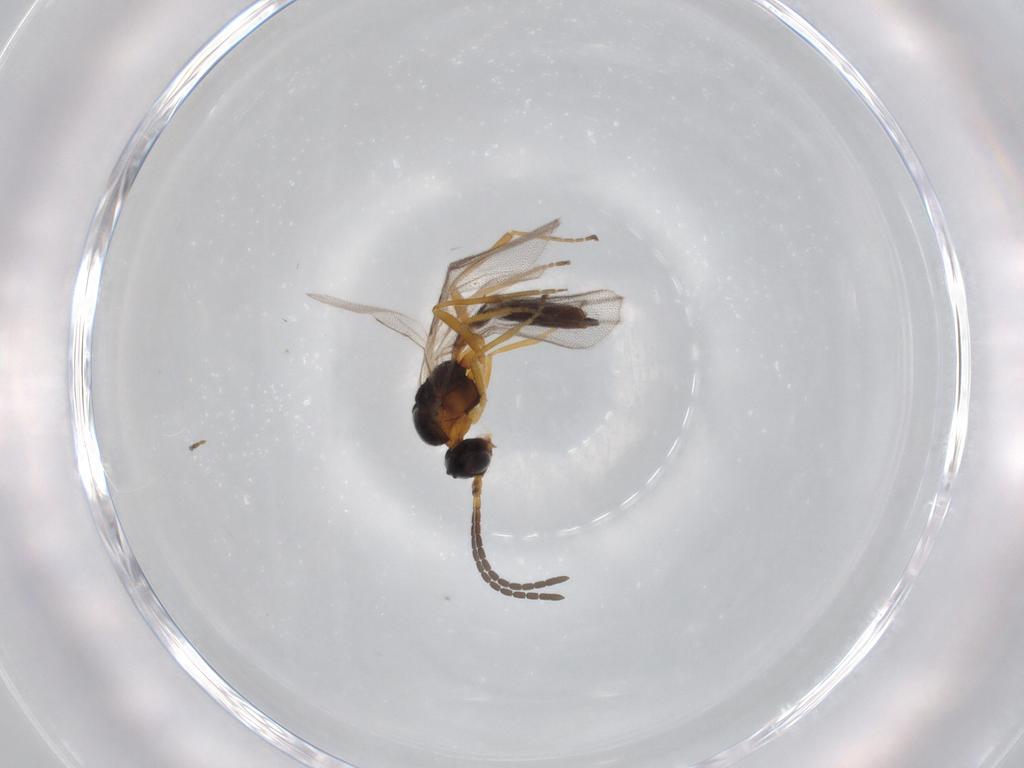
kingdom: Animalia
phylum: Arthropoda
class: Insecta
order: Hymenoptera
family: Braconidae
